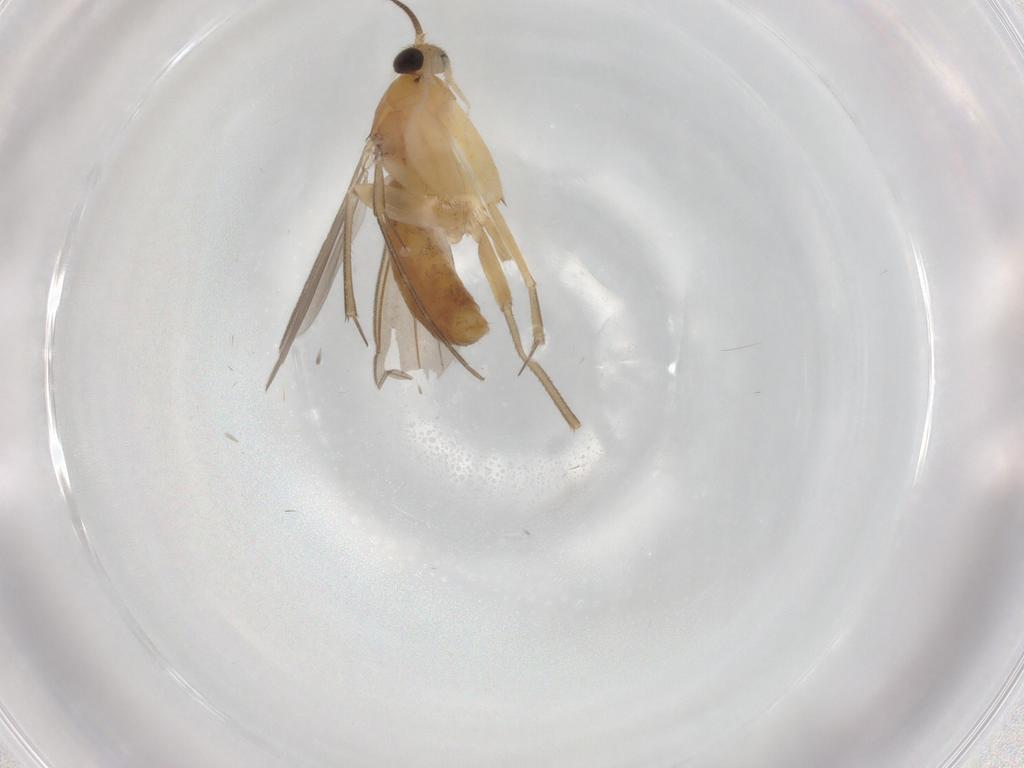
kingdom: Animalia
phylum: Arthropoda
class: Insecta
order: Diptera
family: Mycetophilidae
